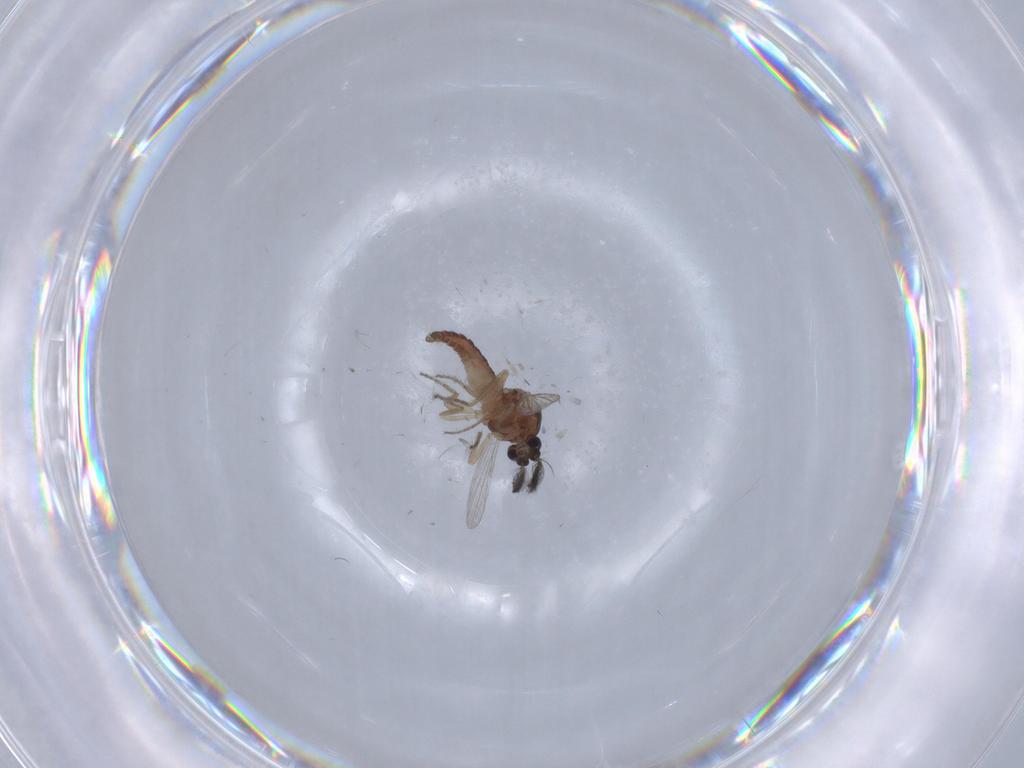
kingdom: Animalia
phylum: Arthropoda
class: Insecta
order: Diptera
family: Ceratopogonidae
